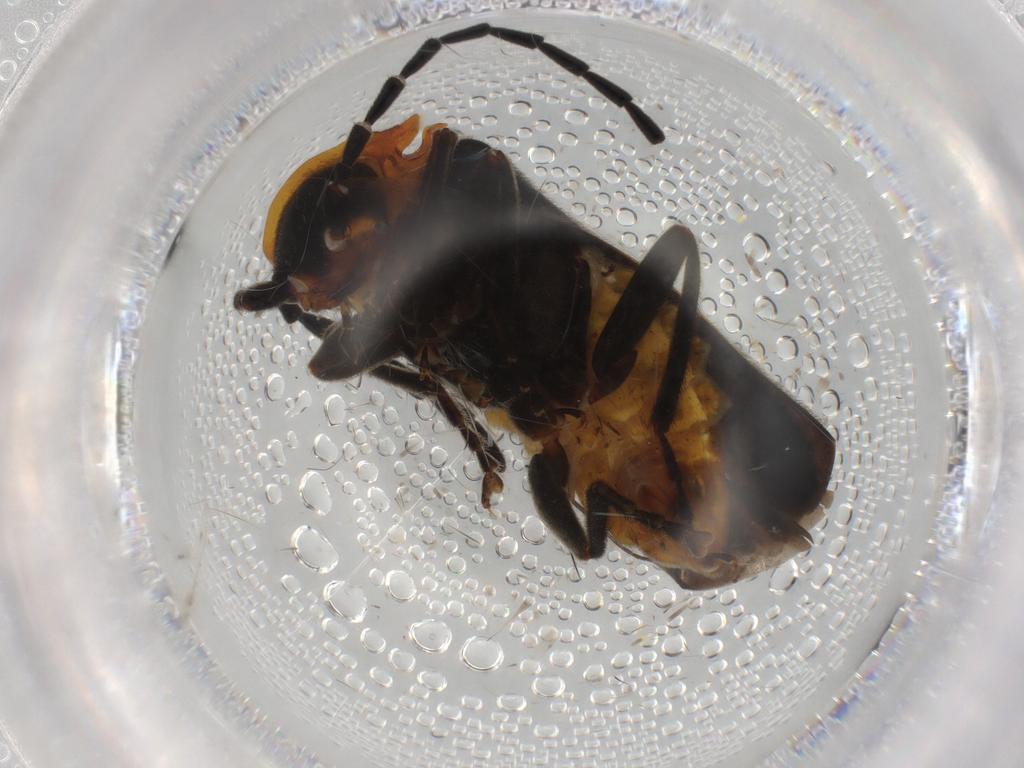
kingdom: Animalia
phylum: Arthropoda
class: Insecta
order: Coleoptera
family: Cantharidae
